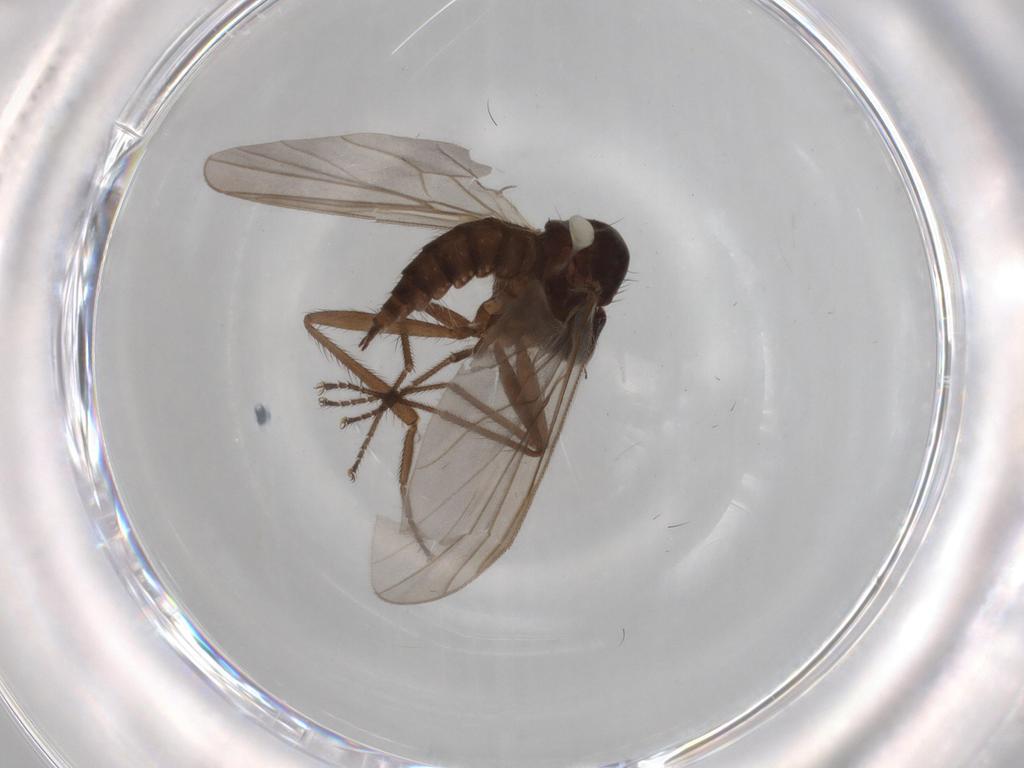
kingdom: Animalia
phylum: Arthropoda
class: Insecta
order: Diptera
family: Hybotidae
